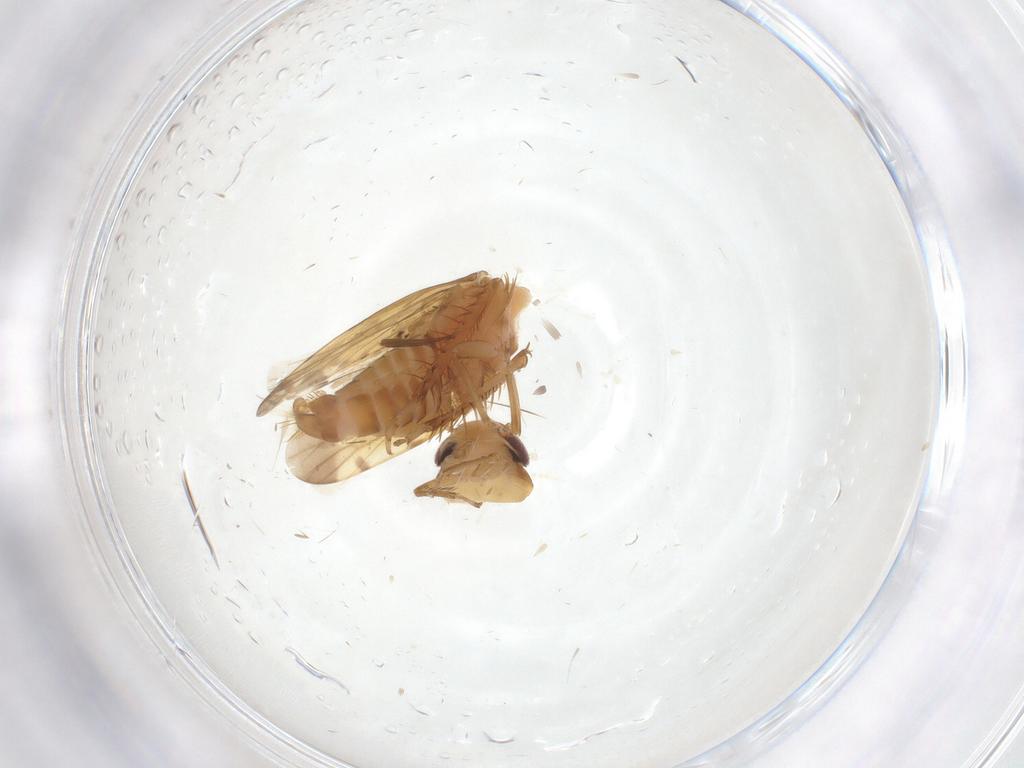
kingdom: Animalia
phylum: Arthropoda
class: Insecta
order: Hemiptera
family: Cicadellidae
